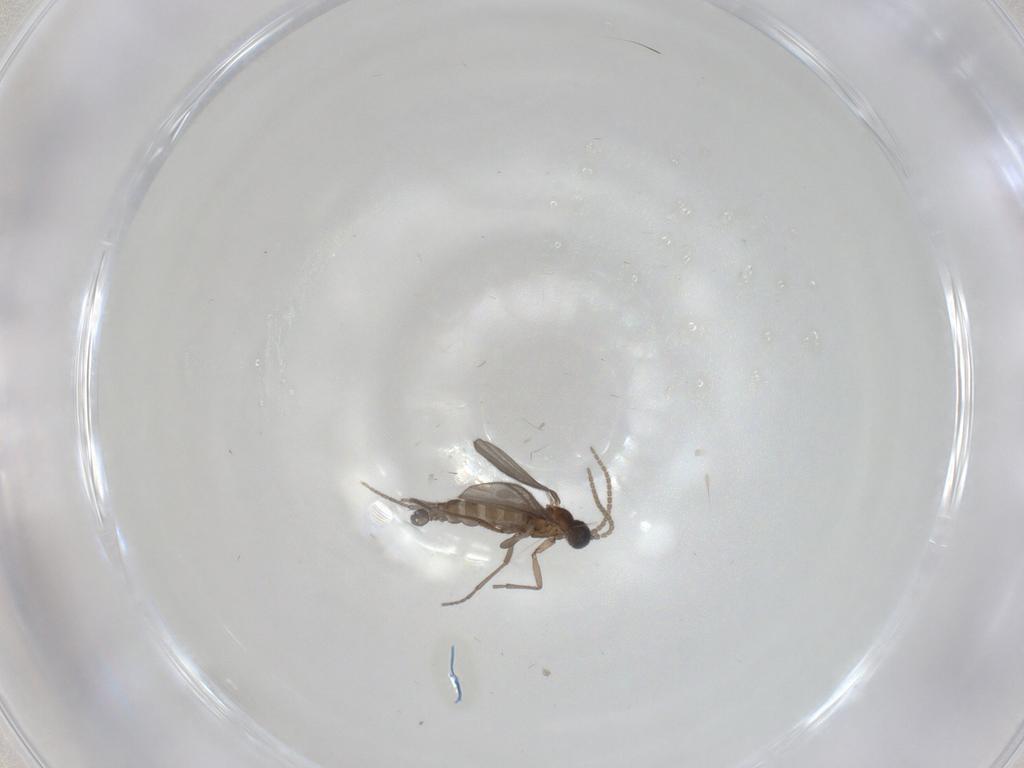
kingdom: Animalia
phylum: Arthropoda
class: Insecta
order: Diptera
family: Sciaridae
